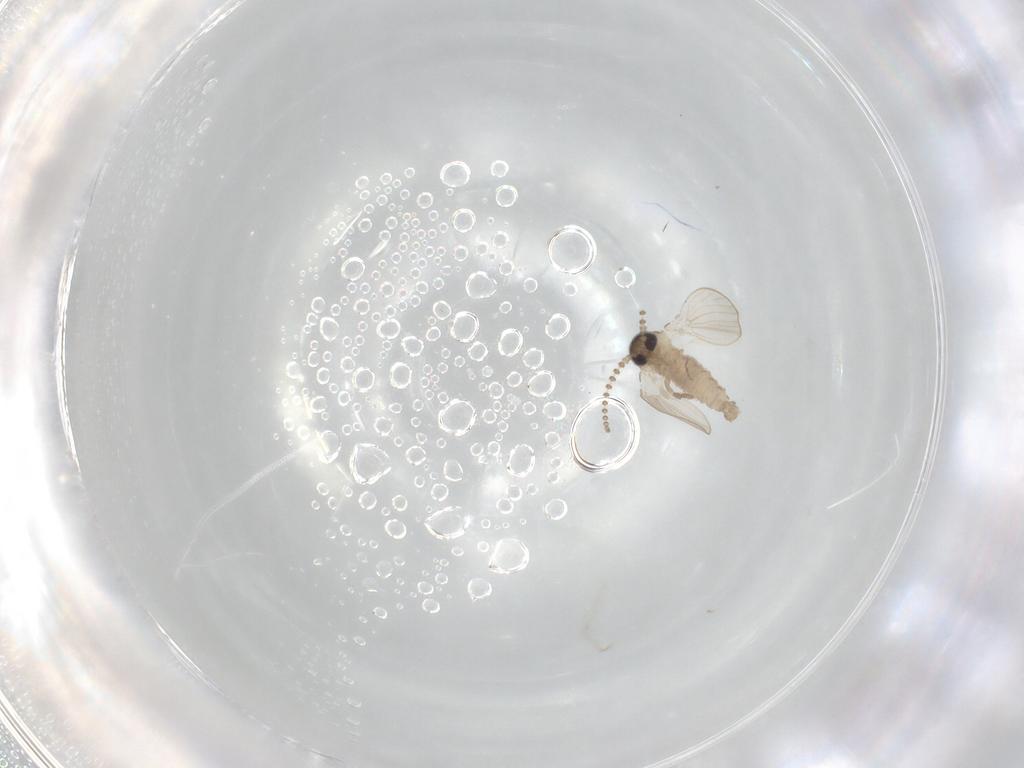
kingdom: Animalia
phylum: Arthropoda
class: Insecta
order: Diptera
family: Psychodidae
